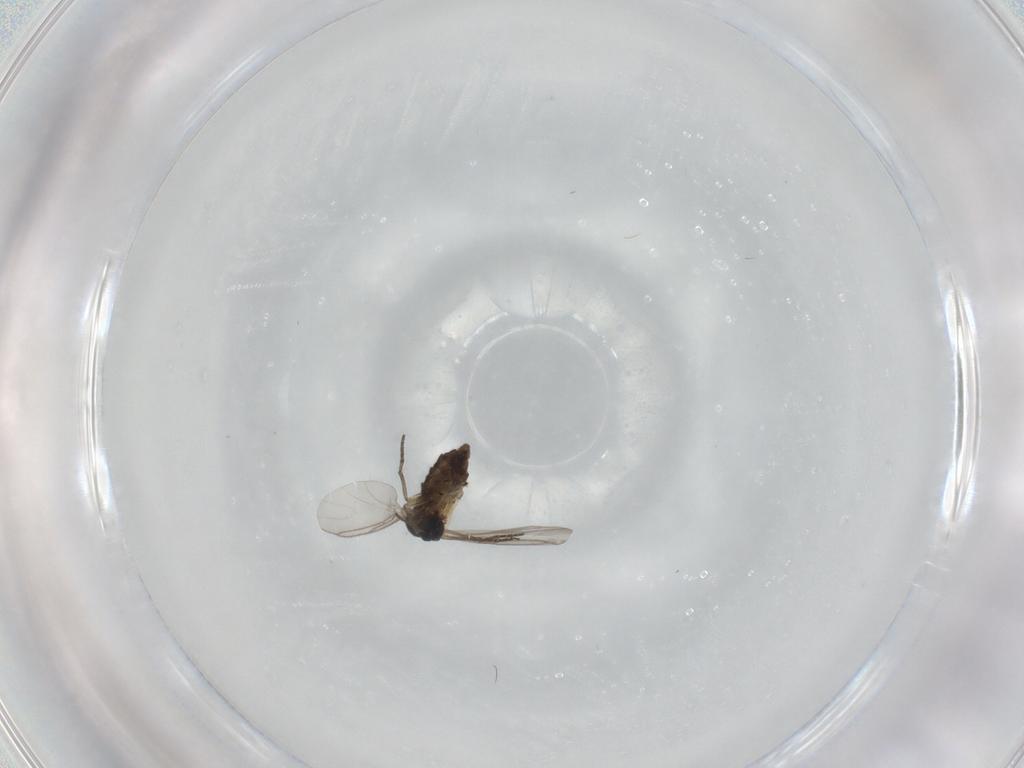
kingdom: Animalia
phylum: Arthropoda
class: Insecta
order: Diptera
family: Sciaridae
